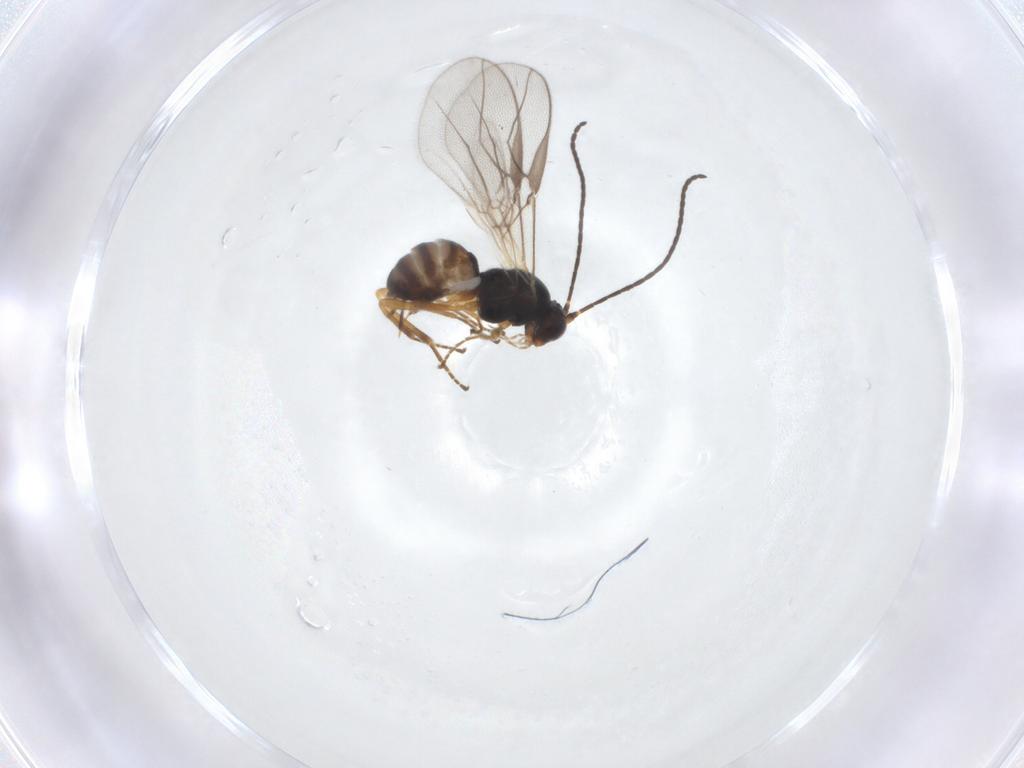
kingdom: Animalia
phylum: Arthropoda
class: Insecta
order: Hymenoptera
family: Braconidae
